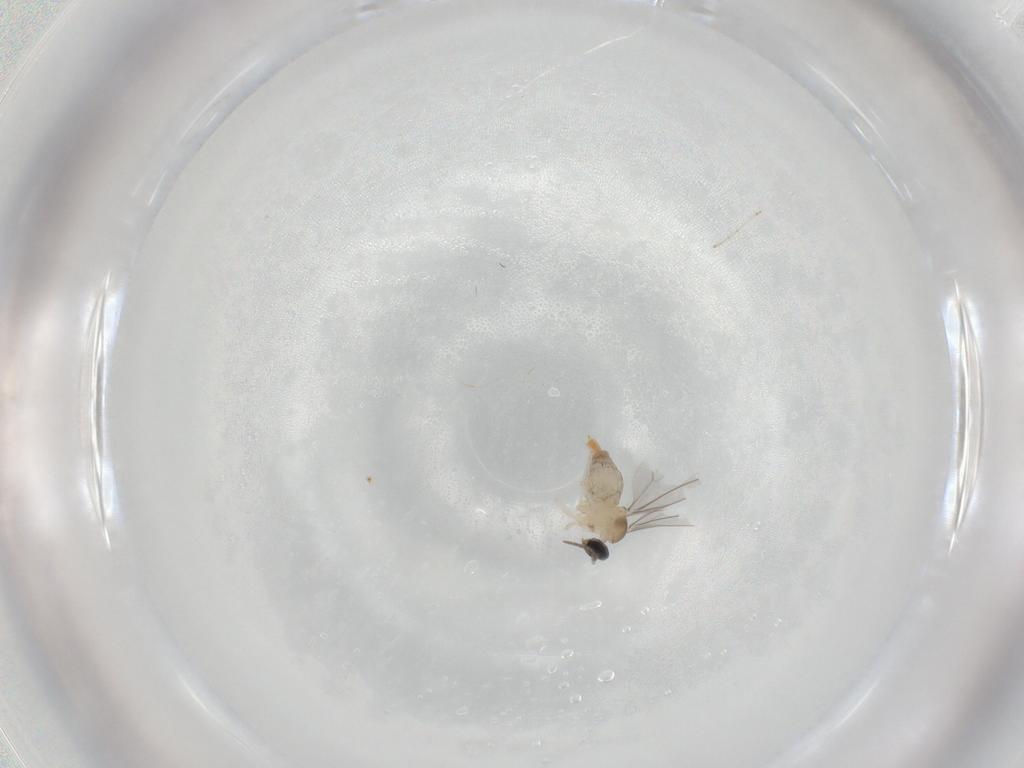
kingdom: Animalia
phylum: Arthropoda
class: Insecta
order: Diptera
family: Cecidomyiidae
